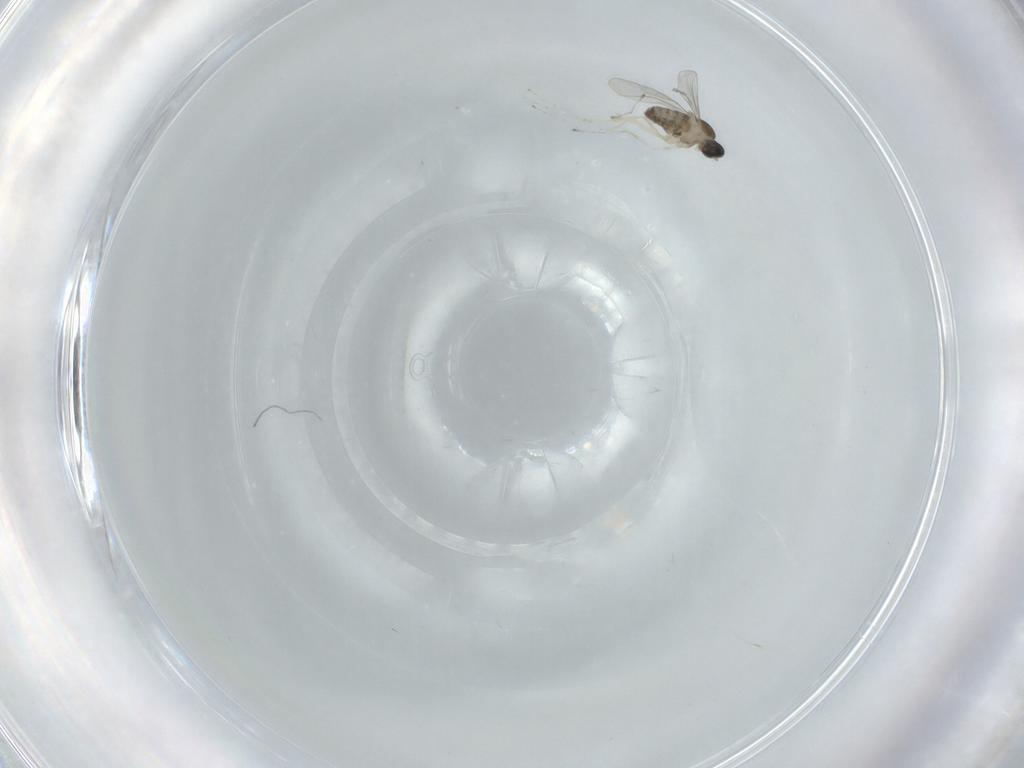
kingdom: Animalia
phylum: Arthropoda
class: Insecta
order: Diptera
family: Cecidomyiidae
